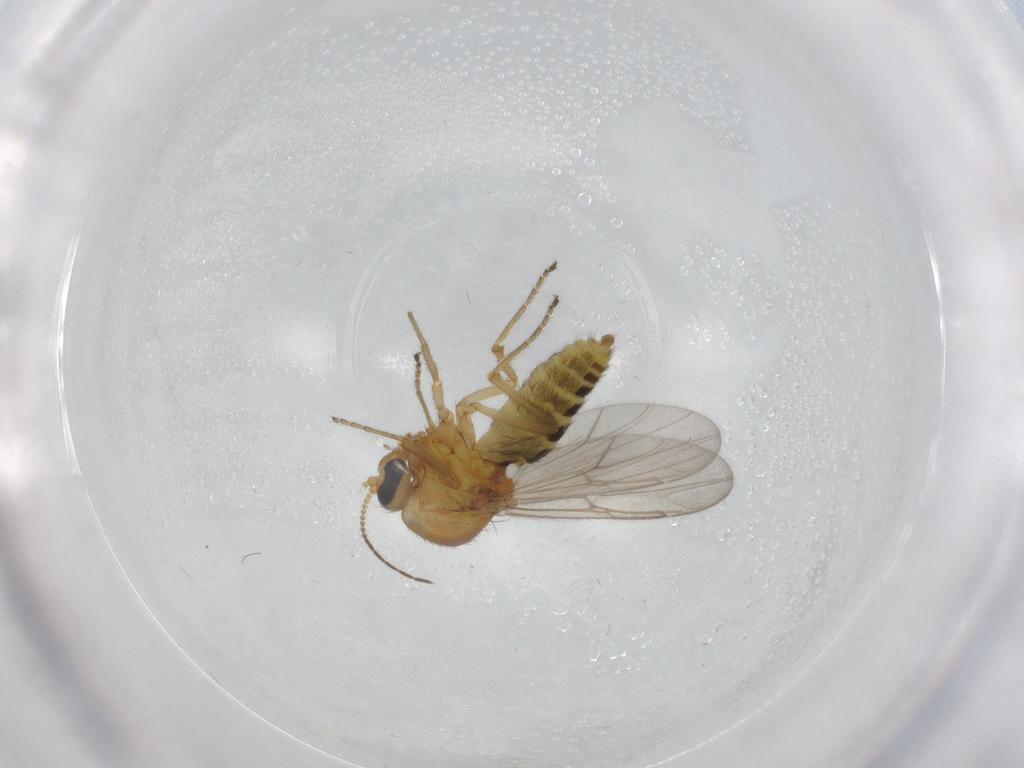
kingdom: Animalia
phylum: Arthropoda
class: Insecta
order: Diptera
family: Ceratopogonidae
